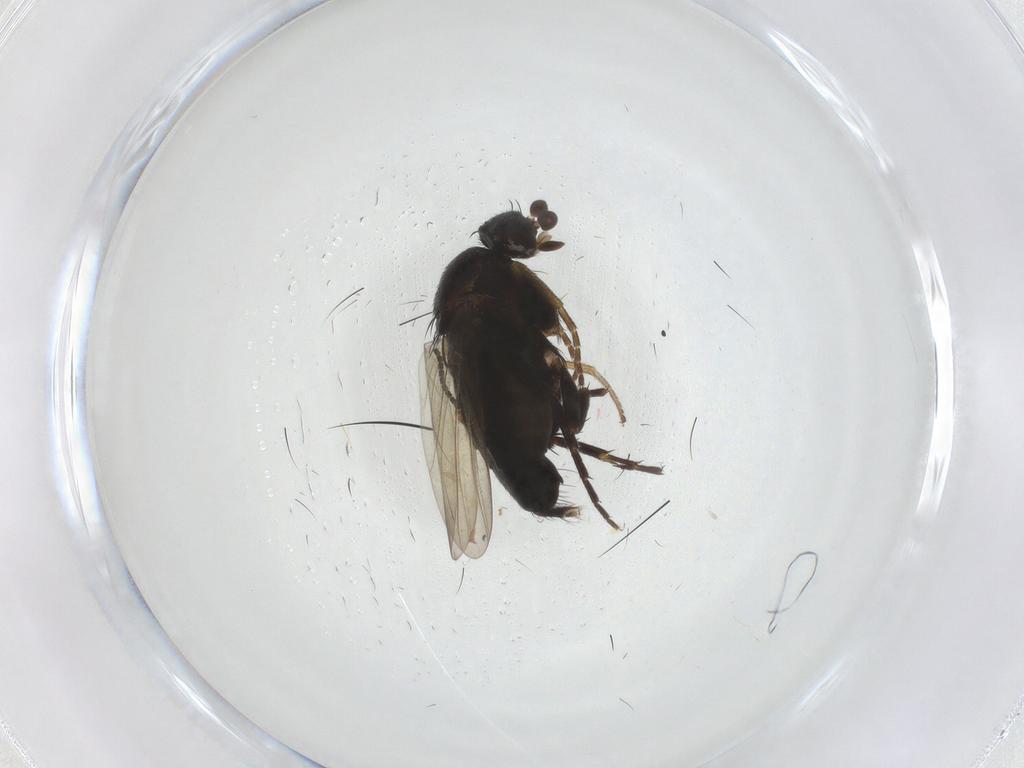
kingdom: Animalia
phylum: Arthropoda
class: Insecta
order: Diptera
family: Phoridae
